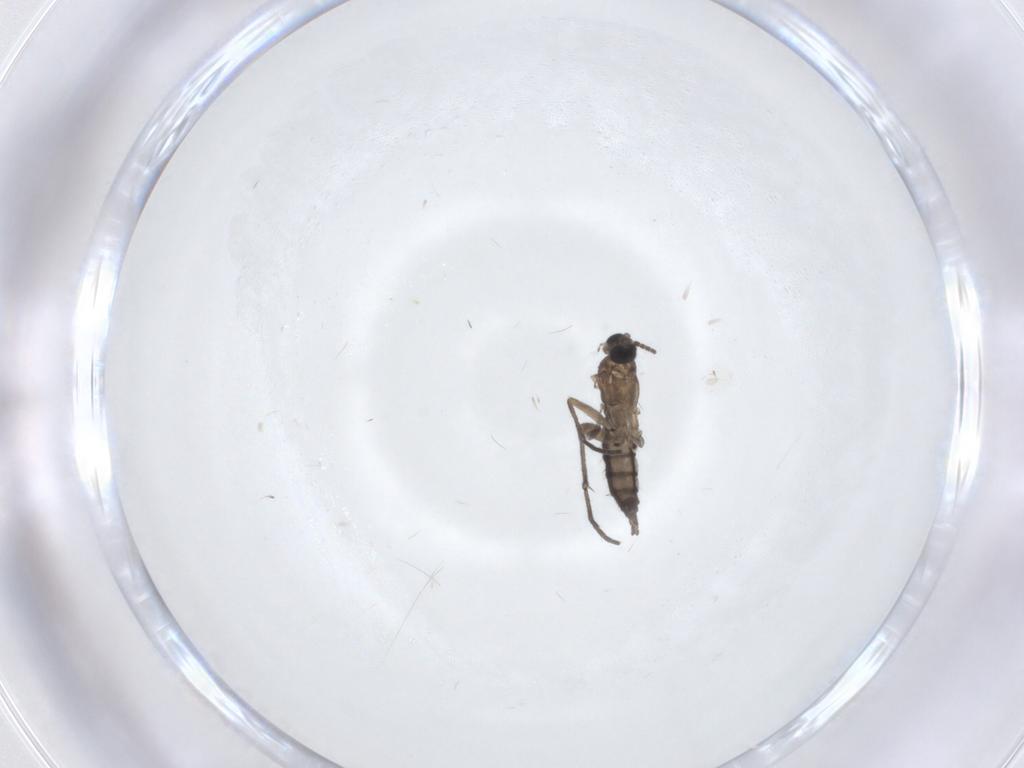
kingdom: Animalia
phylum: Arthropoda
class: Insecta
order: Diptera
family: Sciaridae
